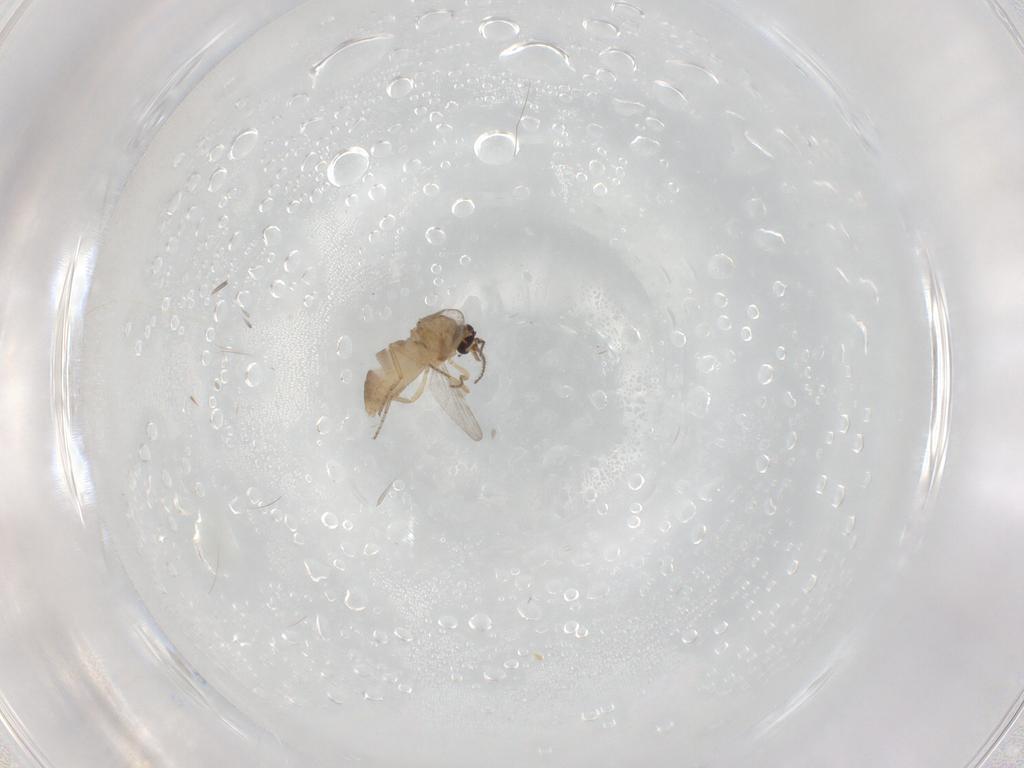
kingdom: Animalia
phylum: Arthropoda
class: Insecta
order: Diptera
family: Ceratopogonidae
